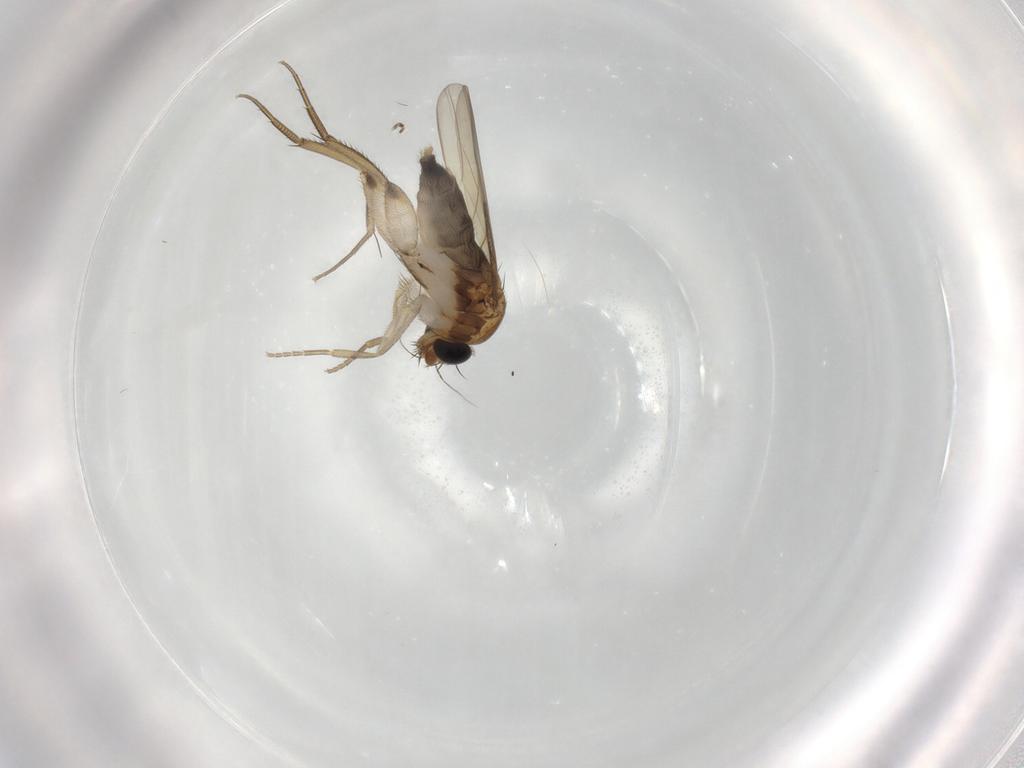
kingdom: Animalia
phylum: Arthropoda
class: Insecta
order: Diptera
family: Phoridae
